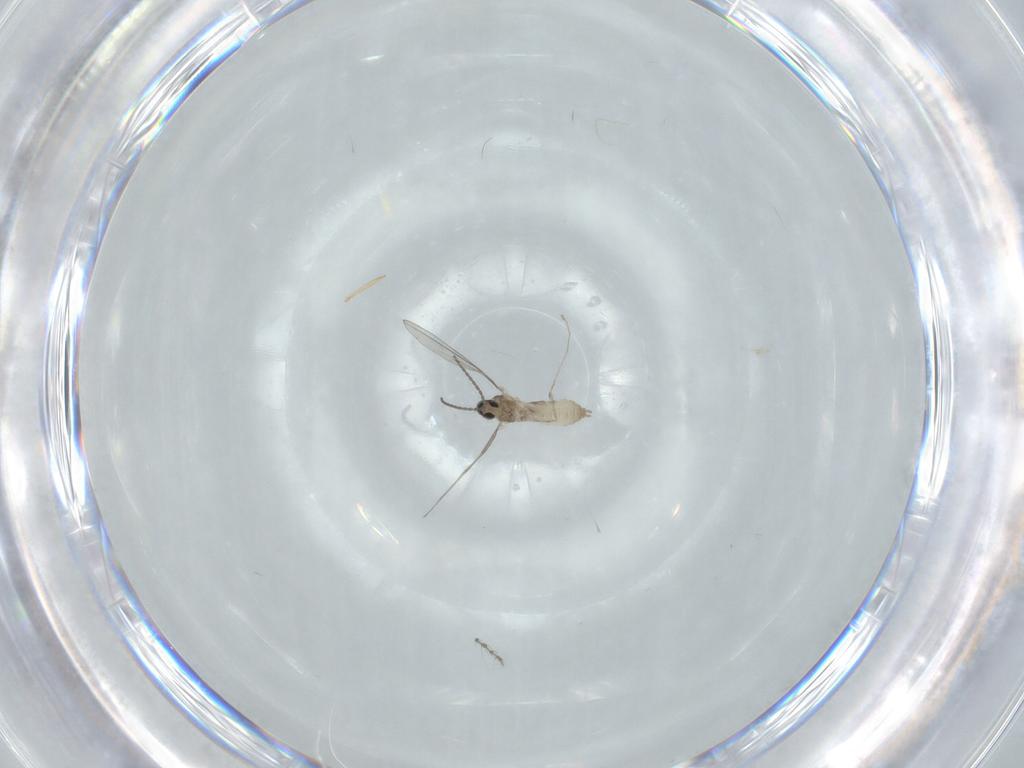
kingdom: Animalia
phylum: Arthropoda
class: Insecta
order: Diptera
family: Cecidomyiidae
